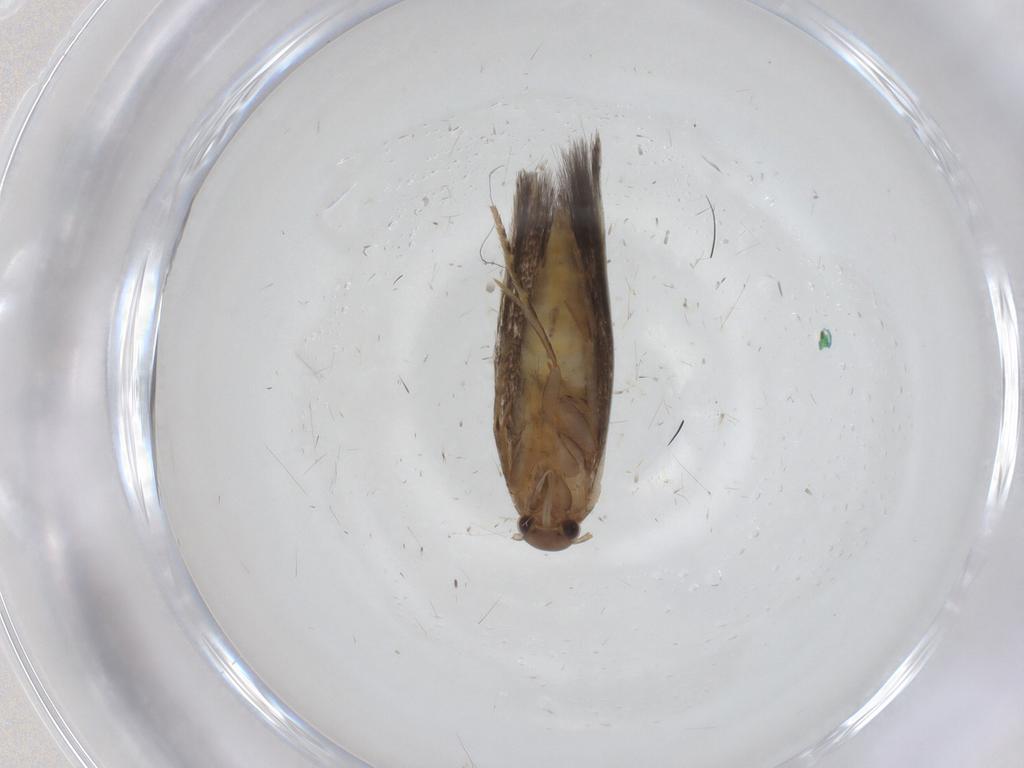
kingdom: Animalia
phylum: Arthropoda
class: Insecta
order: Lepidoptera
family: Elachistidae
